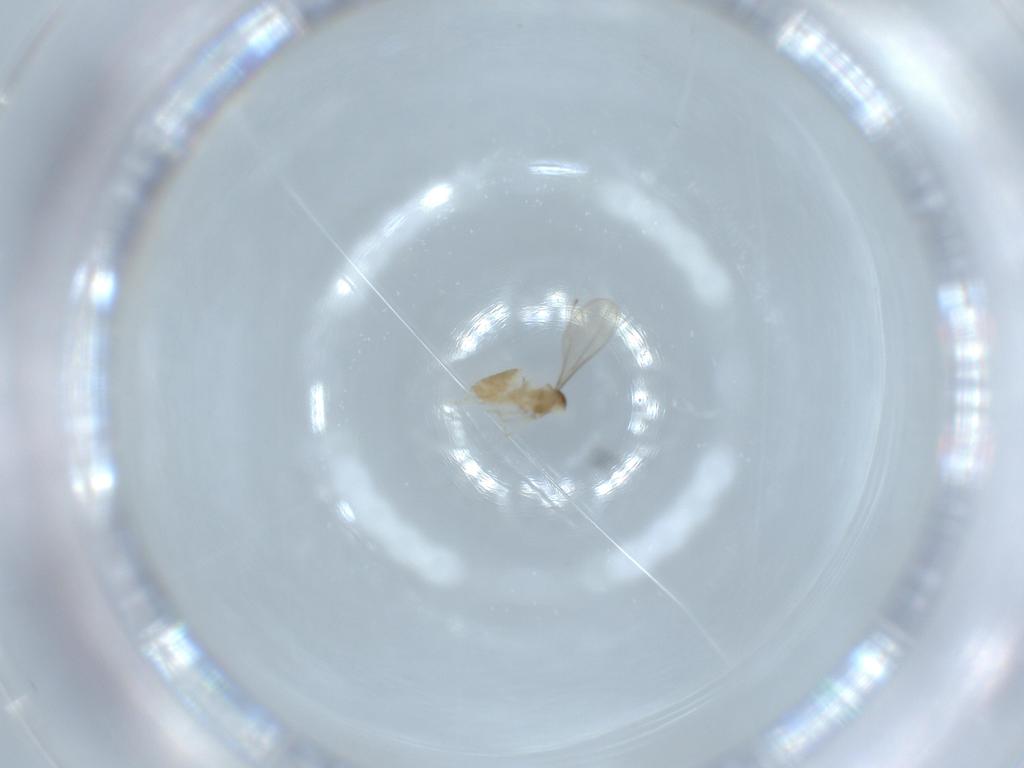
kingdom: Animalia
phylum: Arthropoda
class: Insecta
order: Diptera
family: Cecidomyiidae
